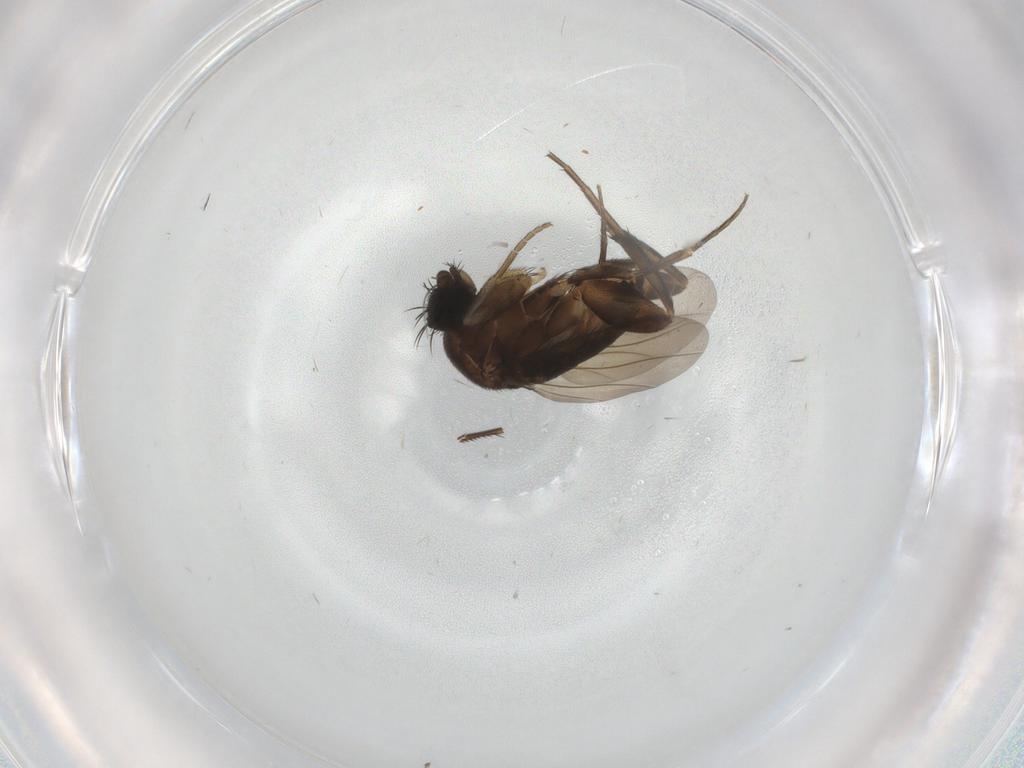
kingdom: Animalia
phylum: Arthropoda
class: Insecta
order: Diptera
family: Phoridae
